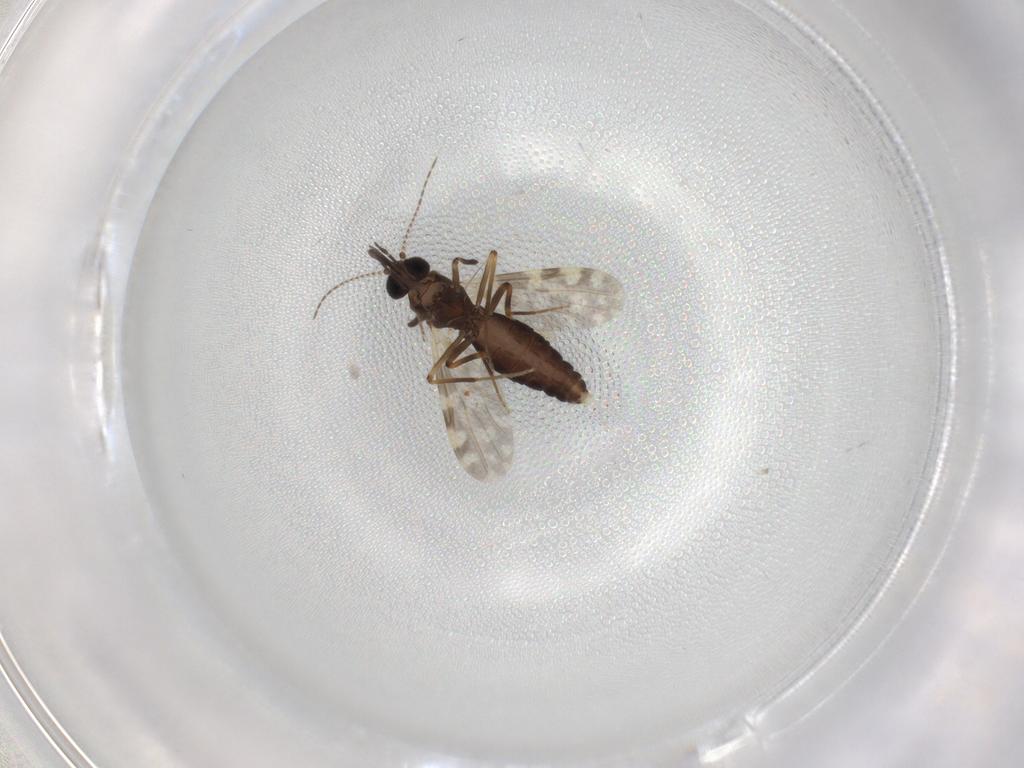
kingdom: Animalia
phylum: Arthropoda
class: Insecta
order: Diptera
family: Ceratopogonidae
